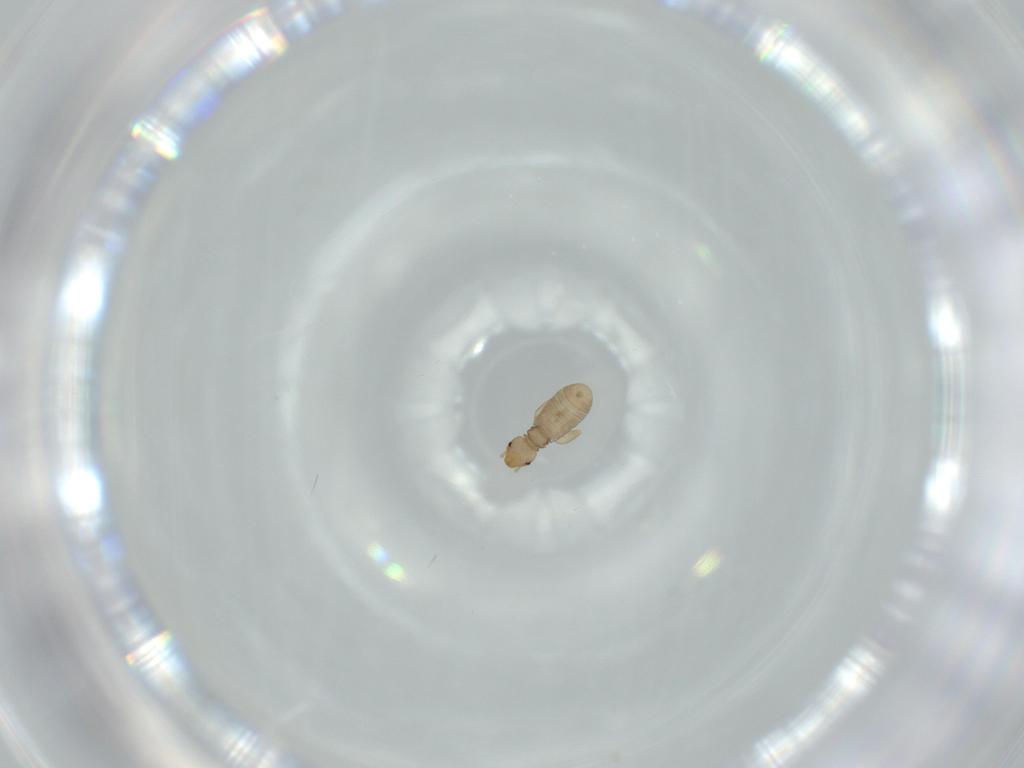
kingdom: Animalia
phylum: Arthropoda
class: Insecta
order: Psocodea
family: Liposcelididae
